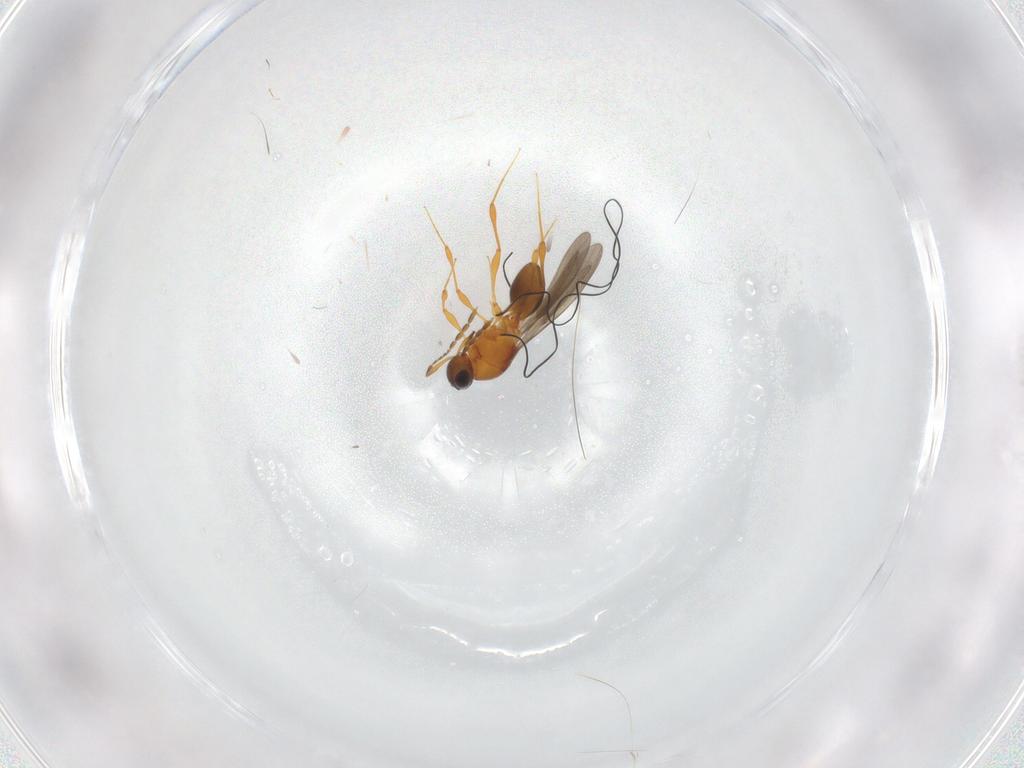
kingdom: Animalia
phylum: Arthropoda
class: Insecta
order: Hymenoptera
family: Platygastridae
